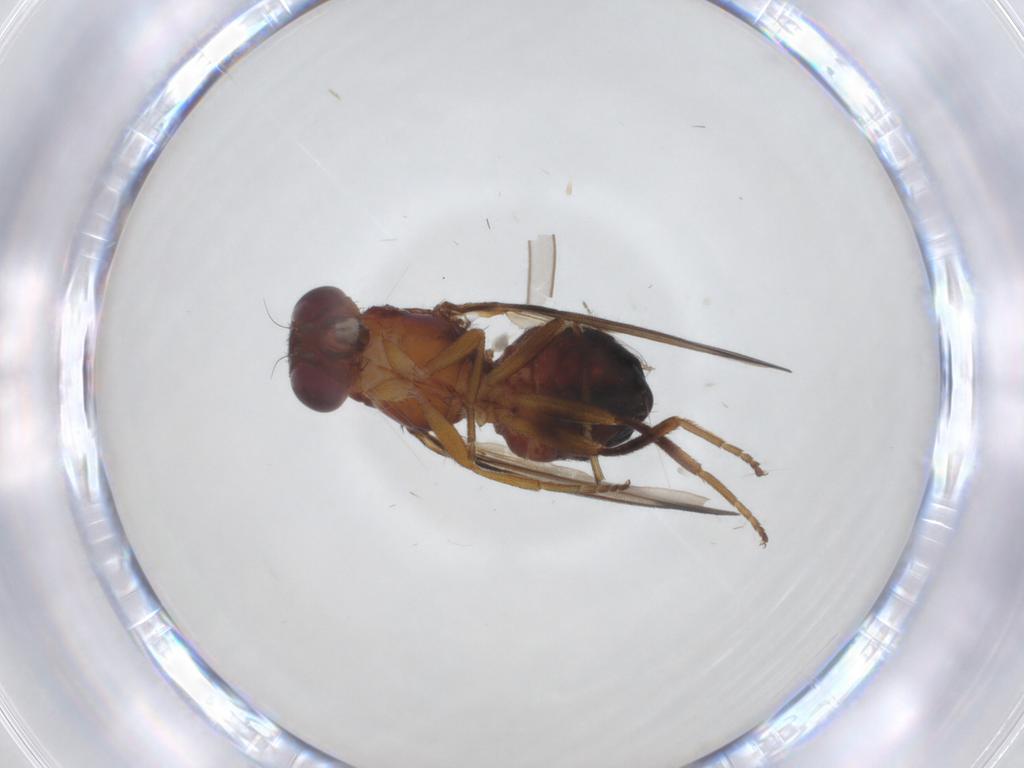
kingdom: Animalia
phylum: Arthropoda
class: Insecta
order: Diptera
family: Piophilidae
